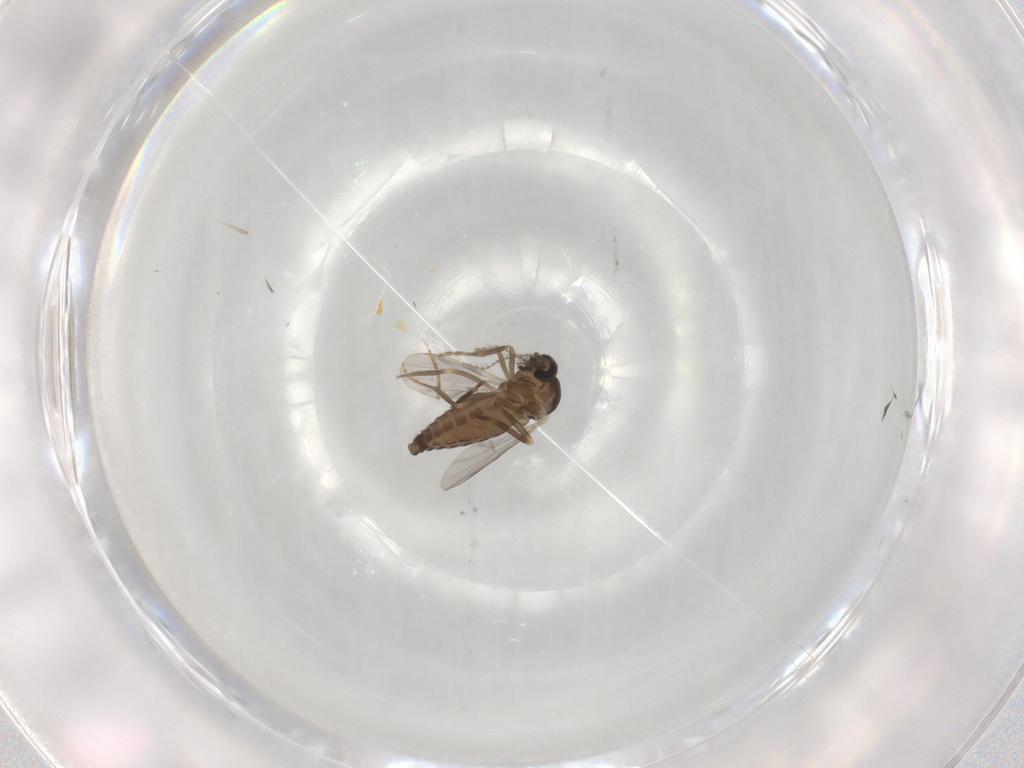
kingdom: Animalia
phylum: Arthropoda
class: Insecta
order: Diptera
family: Ceratopogonidae
